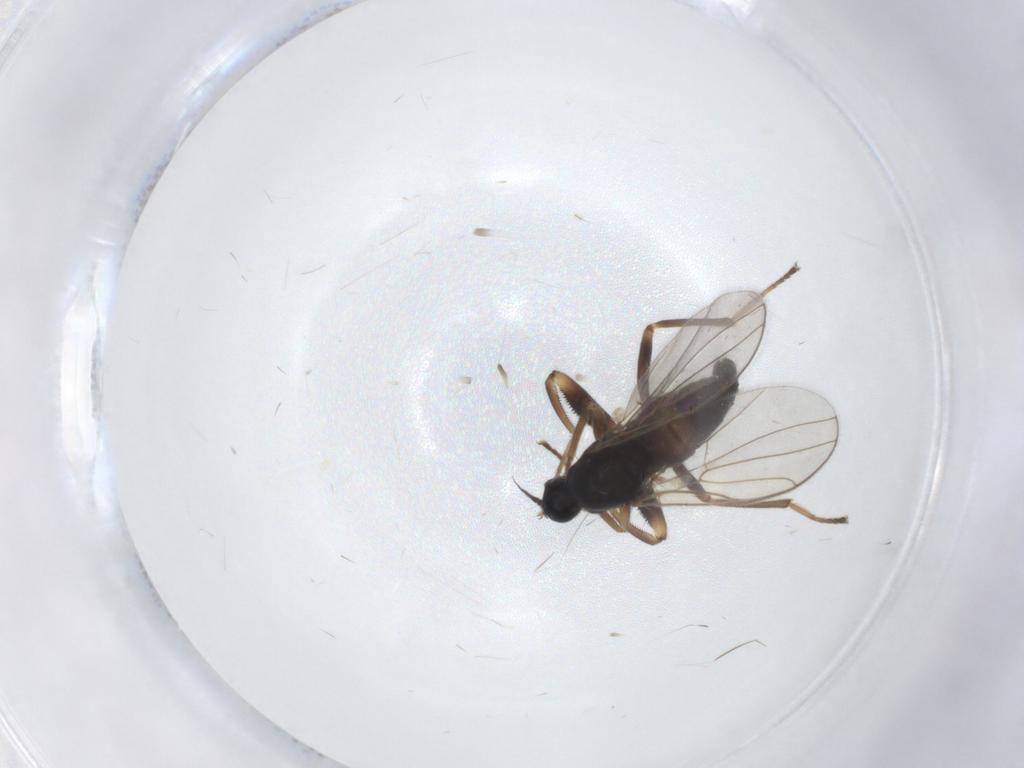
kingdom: Animalia
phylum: Arthropoda
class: Insecta
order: Diptera
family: Chironomidae
